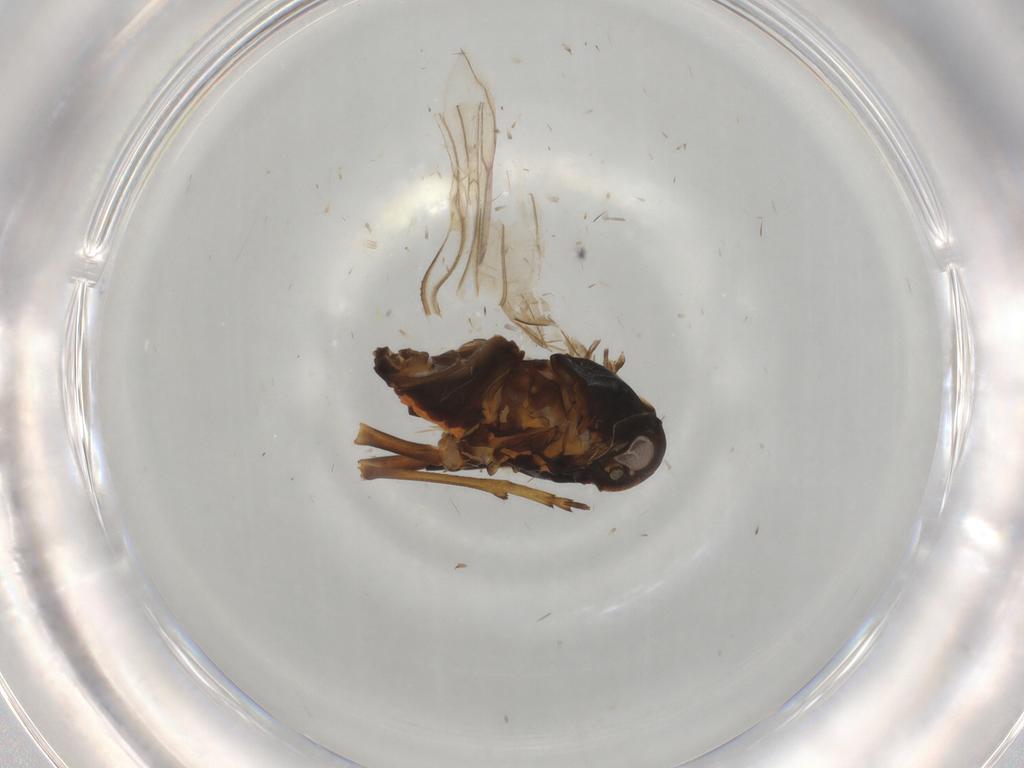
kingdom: Animalia
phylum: Arthropoda
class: Insecta
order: Hemiptera
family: Meenoplidae
